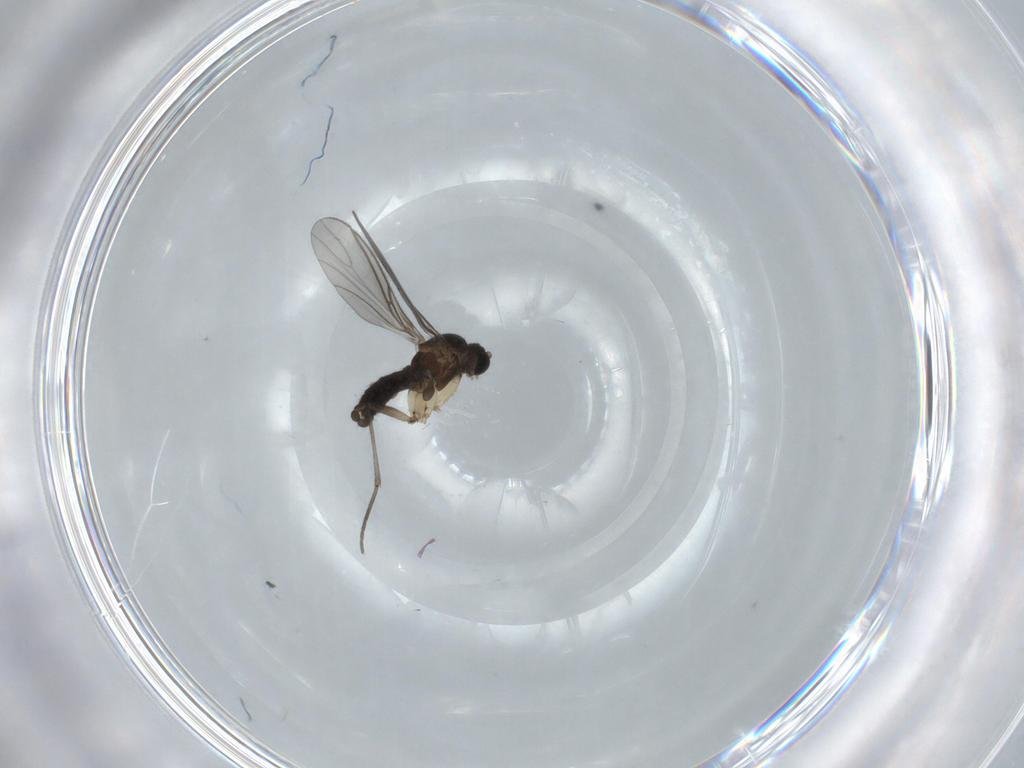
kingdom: Animalia
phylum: Arthropoda
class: Insecta
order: Diptera
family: Sciaridae
